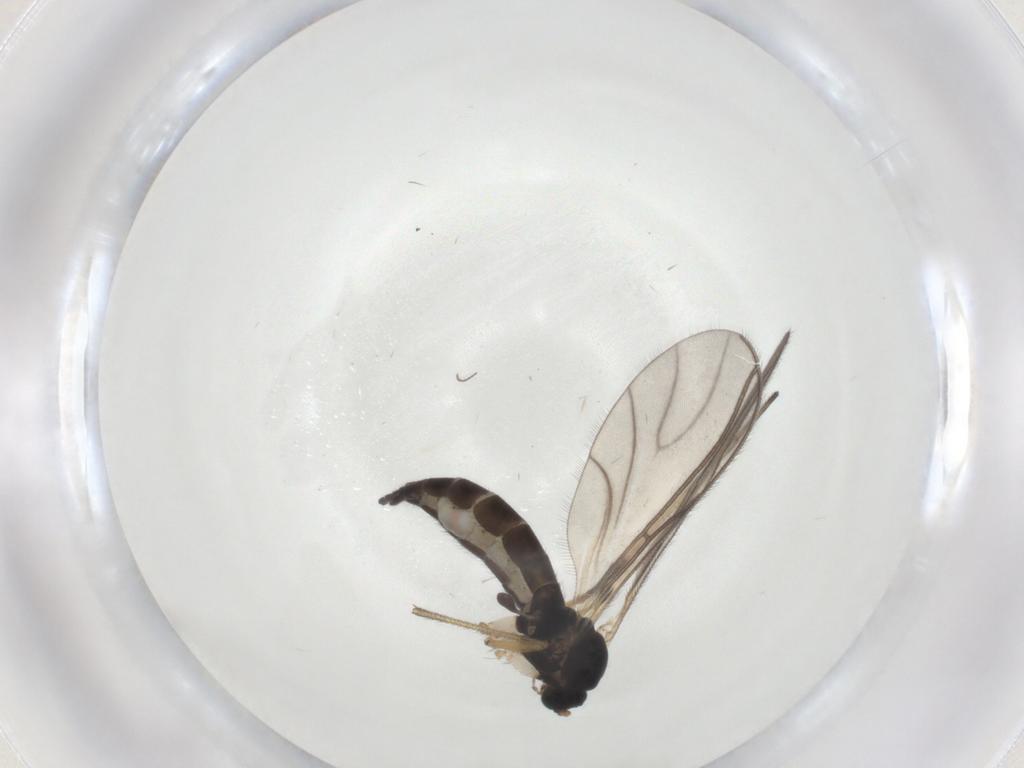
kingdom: Animalia
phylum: Arthropoda
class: Insecta
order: Diptera
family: Sciaridae
